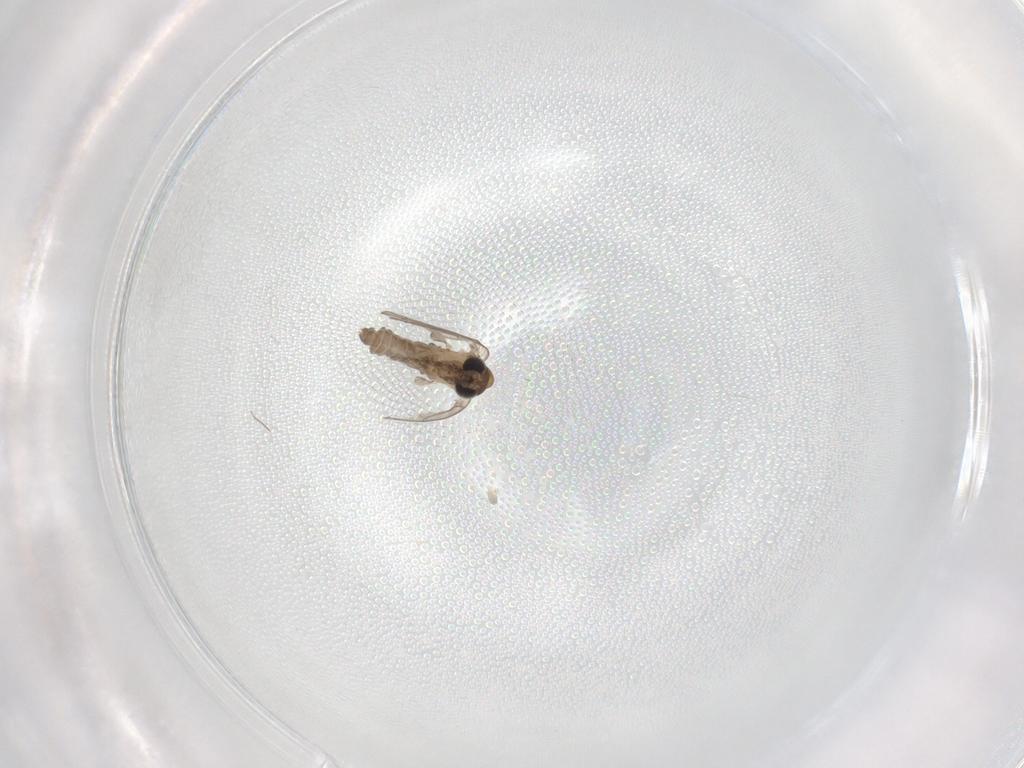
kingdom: Animalia
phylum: Arthropoda
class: Insecta
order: Diptera
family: Psychodidae
